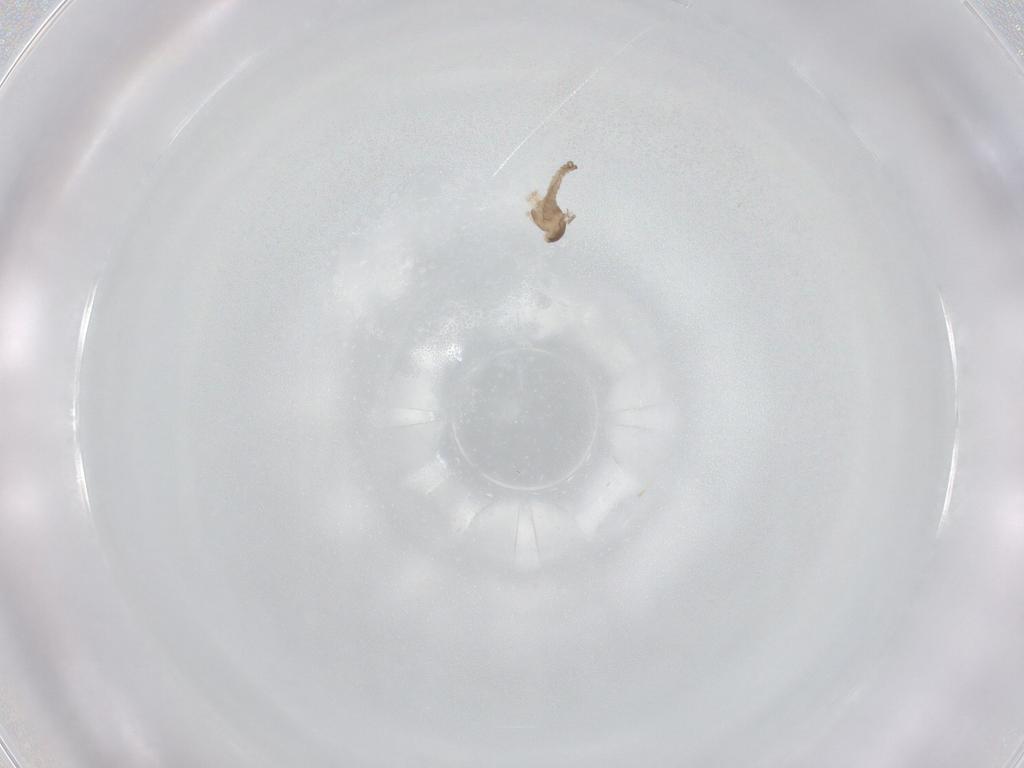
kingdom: Animalia
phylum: Arthropoda
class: Insecta
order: Diptera
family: Cecidomyiidae
